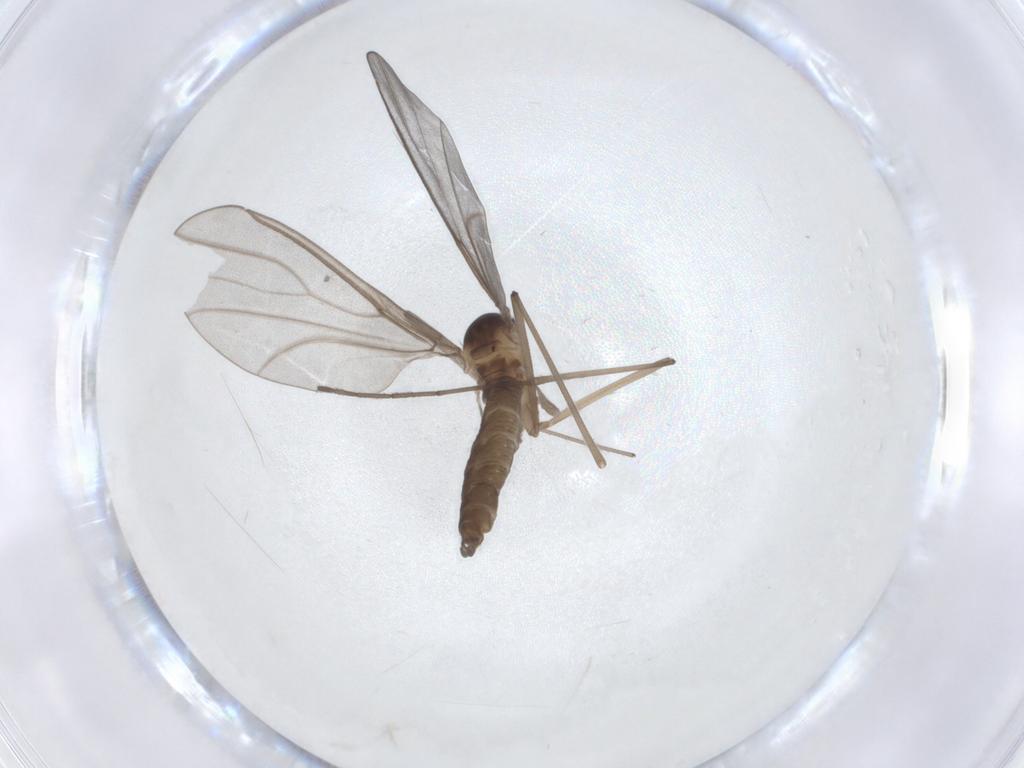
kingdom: Animalia
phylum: Arthropoda
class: Insecta
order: Diptera
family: Cecidomyiidae
